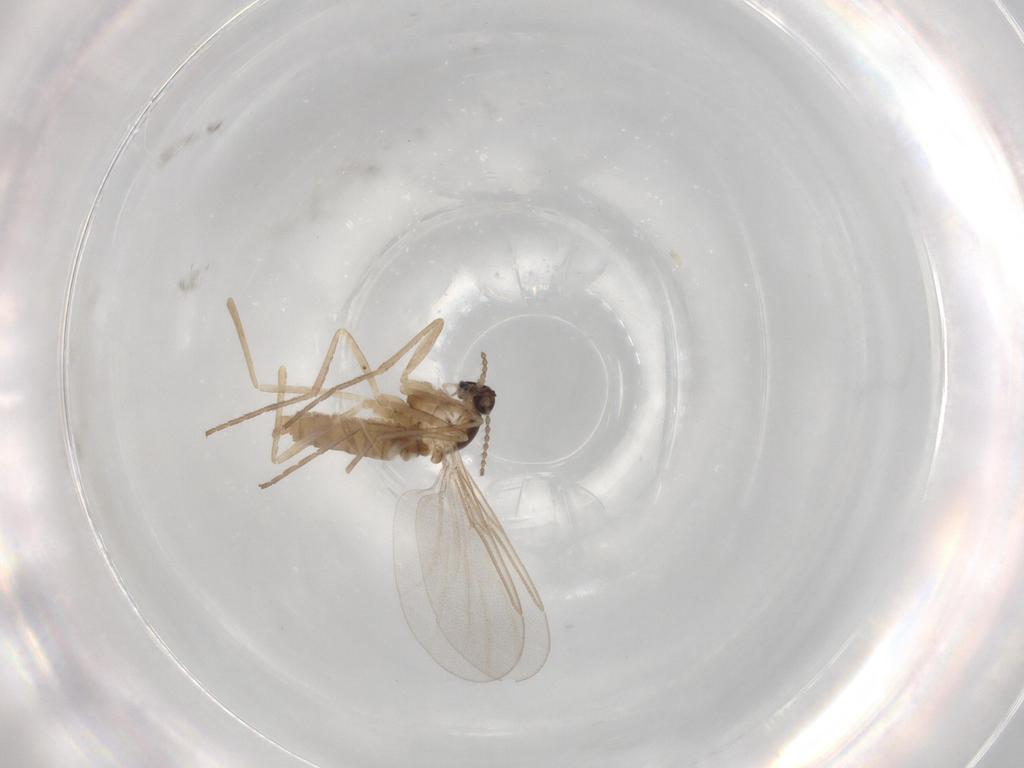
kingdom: Animalia
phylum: Arthropoda
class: Insecta
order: Diptera
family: Cecidomyiidae
